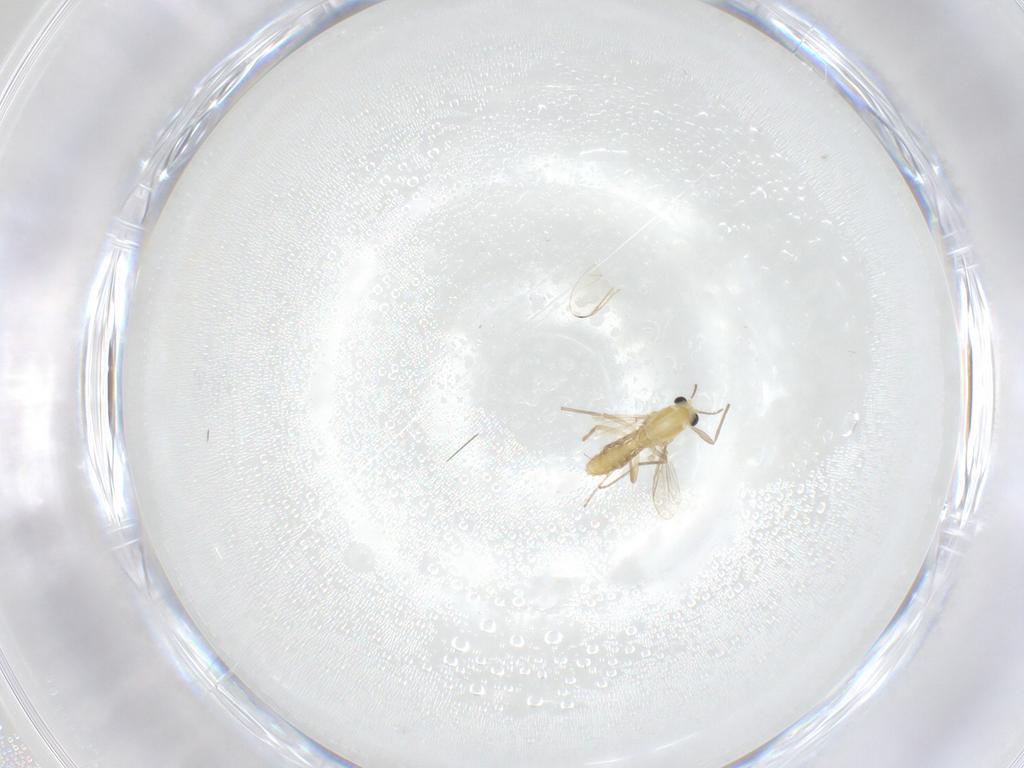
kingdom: Animalia
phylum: Arthropoda
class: Insecta
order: Diptera
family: Chironomidae
